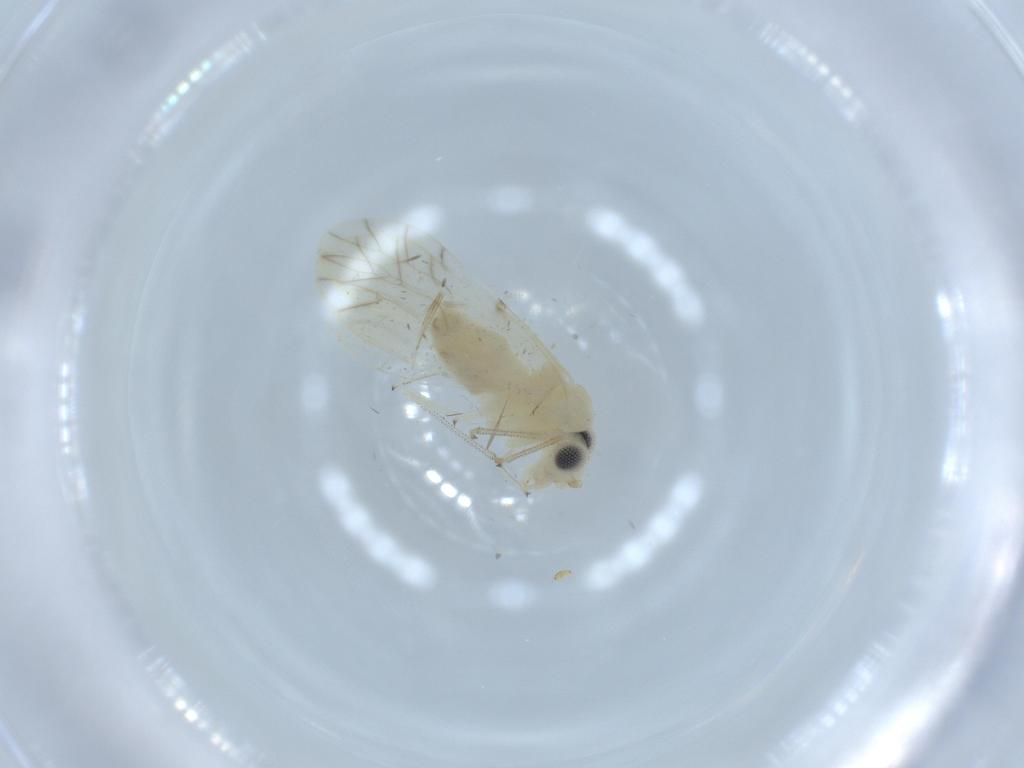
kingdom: Animalia
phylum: Arthropoda
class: Insecta
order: Psocodea
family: Caeciliusidae
